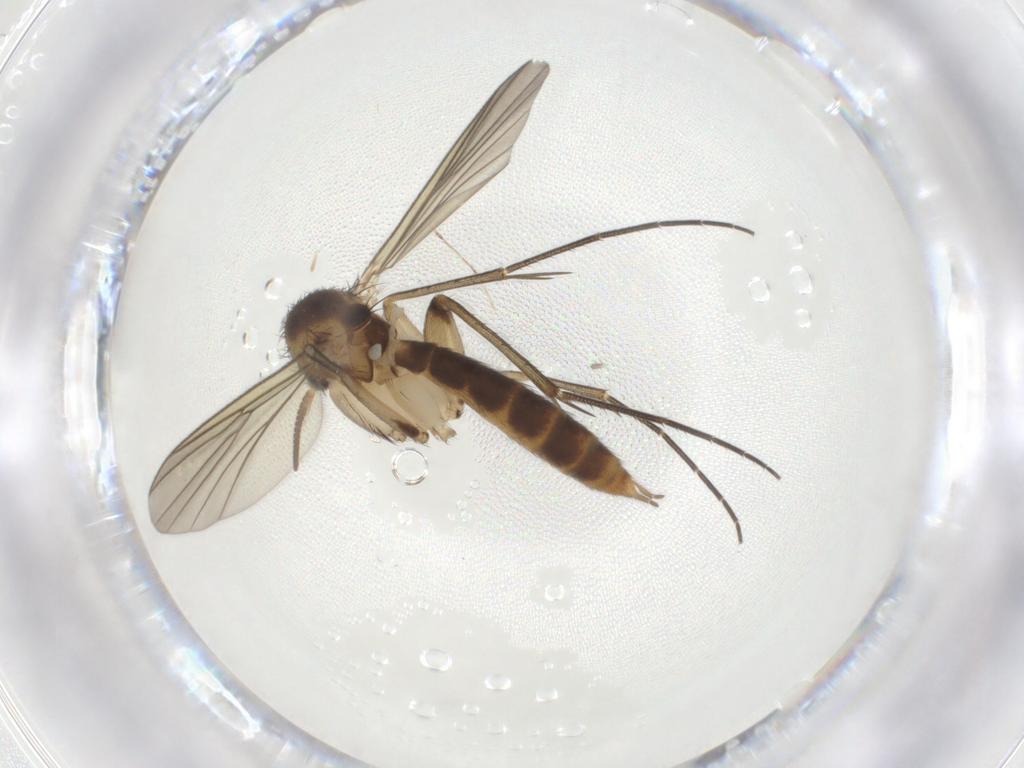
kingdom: Animalia
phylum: Arthropoda
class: Insecta
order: Diptera
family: Mycetophilidae
